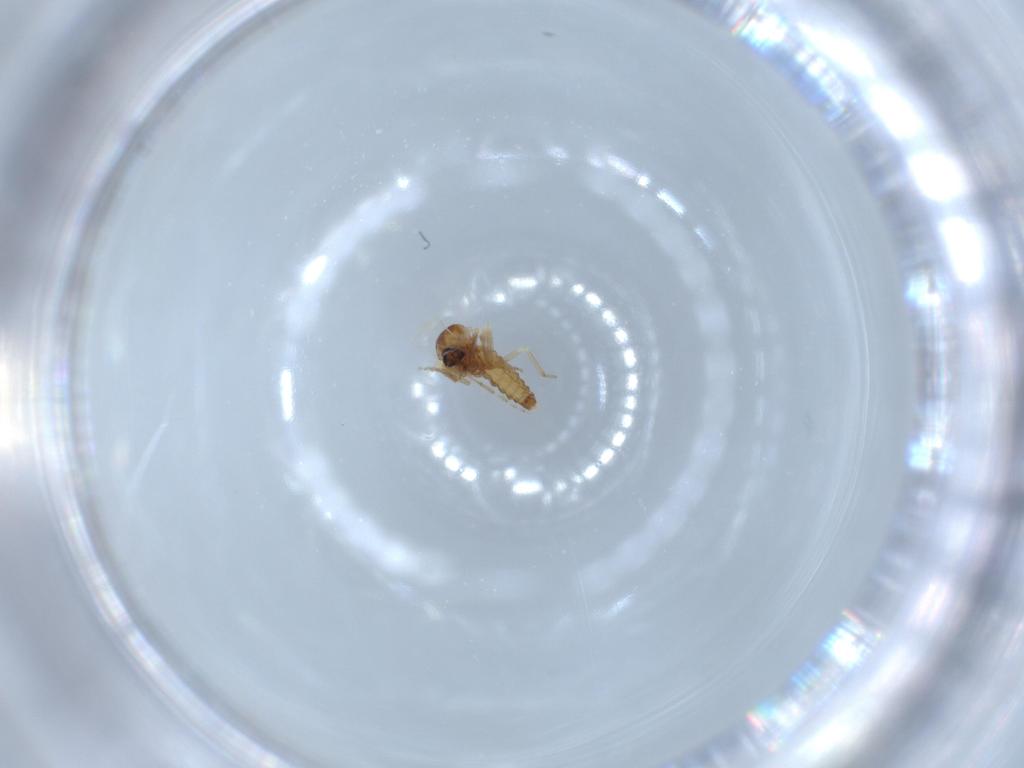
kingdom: Animalia
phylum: Arthropoda
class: Insecta
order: Diptera
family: Ceratopogonidae
